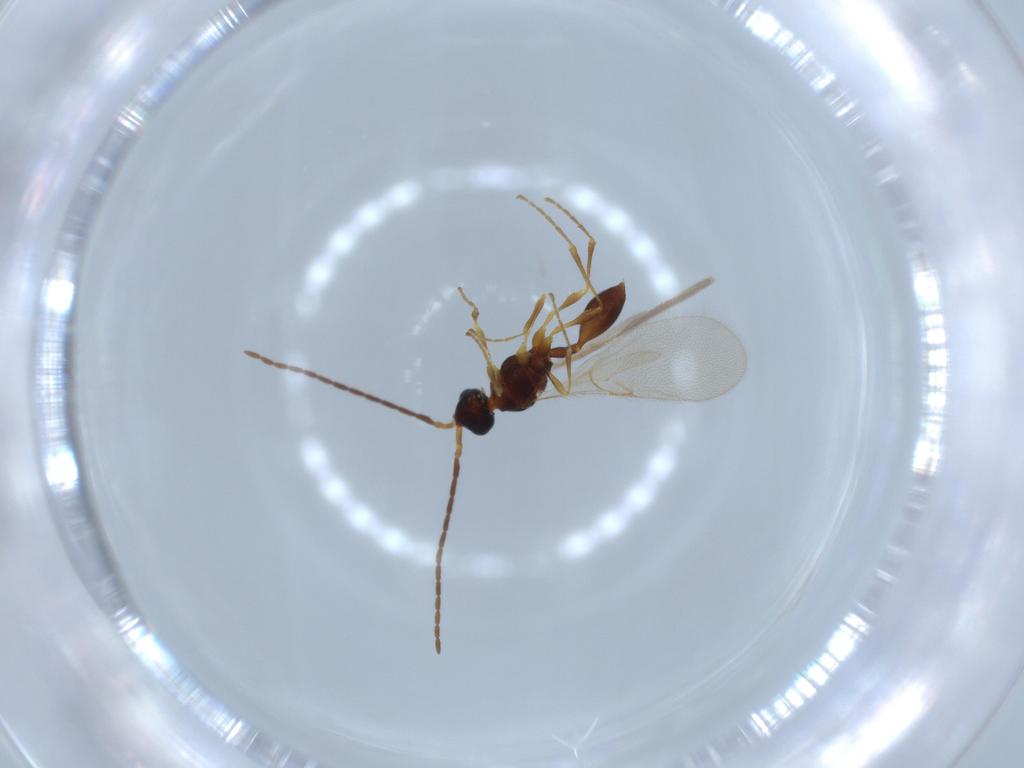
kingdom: Animalia
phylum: Arthropoda
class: Insecta
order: Hymenoptera
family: Diapriidae
